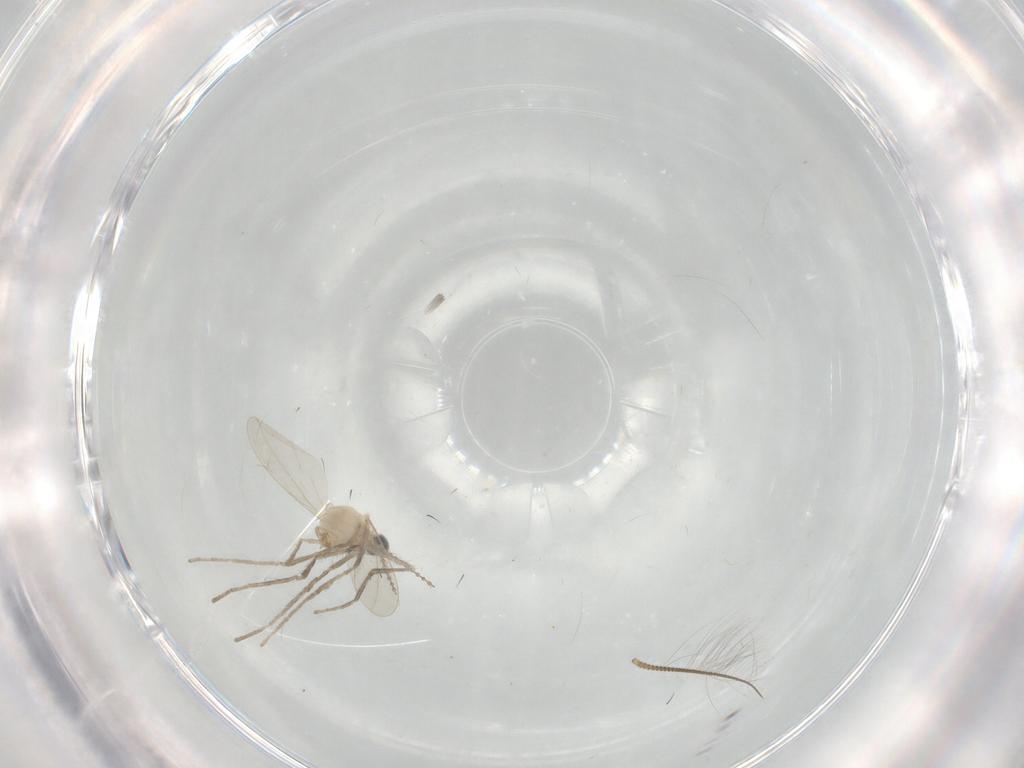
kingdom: Animalia
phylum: Arthropoda
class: Insecta
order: Diptera
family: Cecidomyiidae
